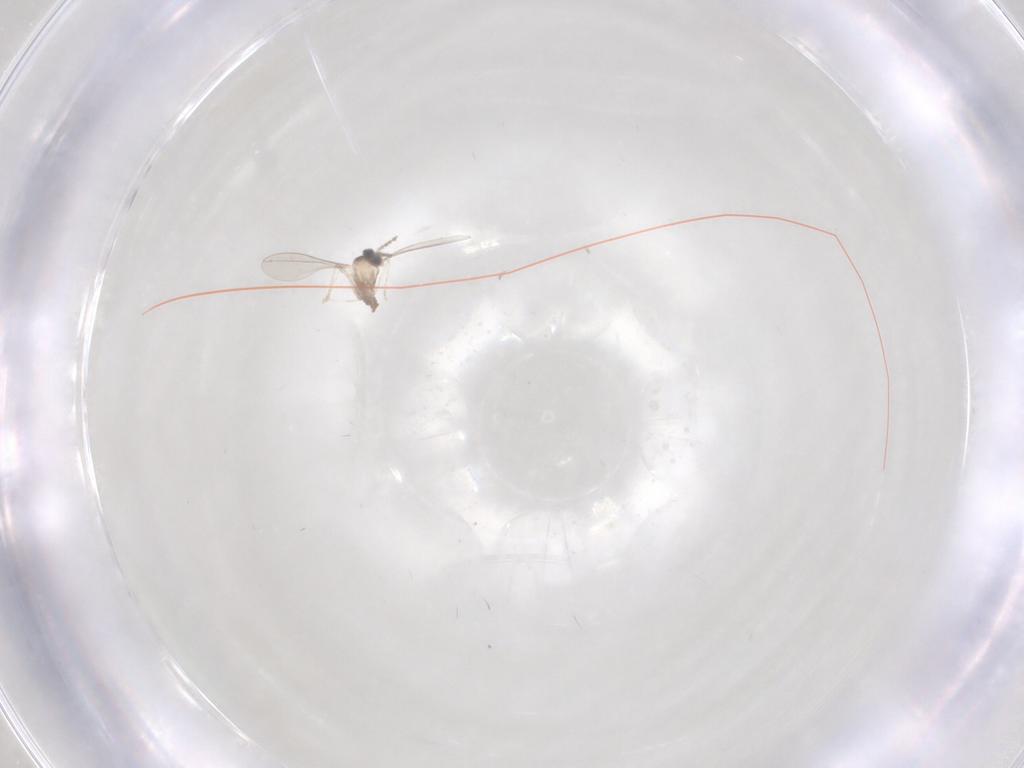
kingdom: Animalia
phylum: Arthropoda
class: Insecta
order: Diptera
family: Cecidomyiidae
